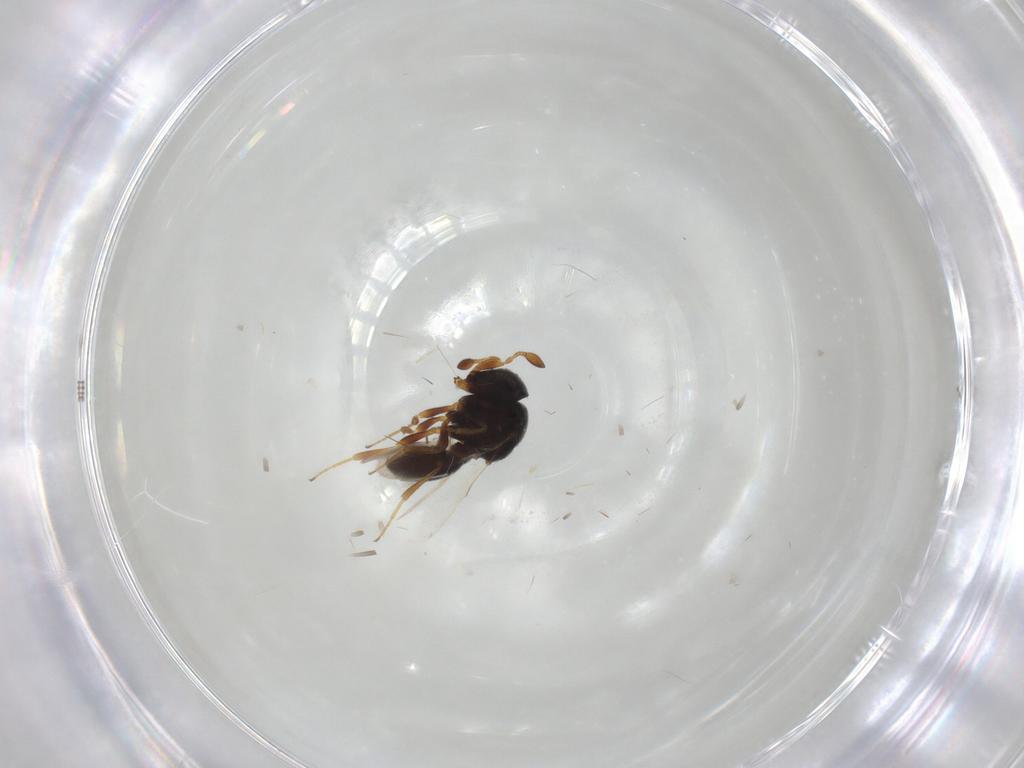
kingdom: Animalia
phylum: Arthropoda
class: Insecta
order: Hymenoptera
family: Scelionidae
